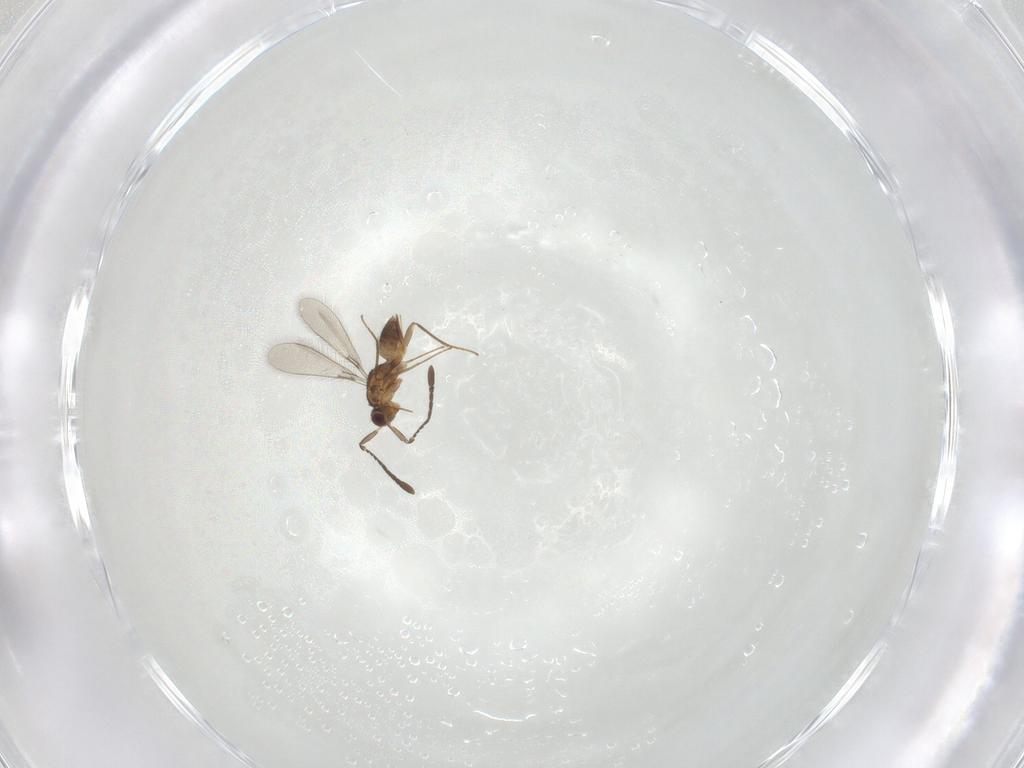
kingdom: Animalia
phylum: Arthropoda
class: Insecta
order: Hymenoptera
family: Mymaridae
